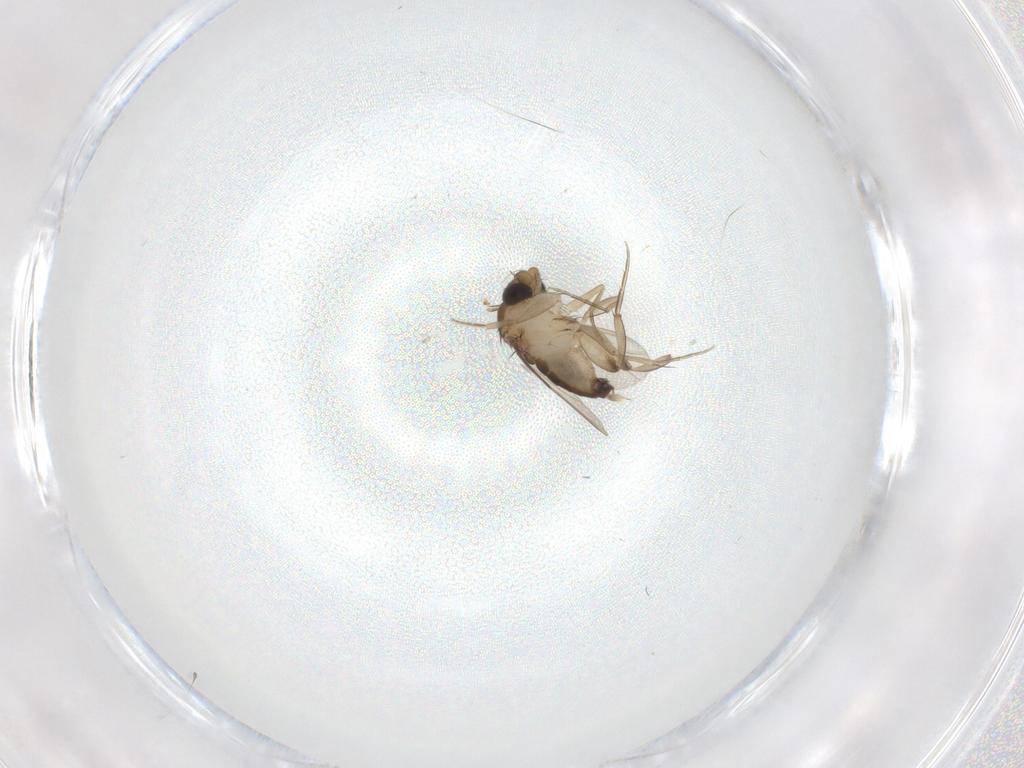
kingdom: Animalia
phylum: Arthropoda
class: Insecta
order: Diptera
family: Phoridae
